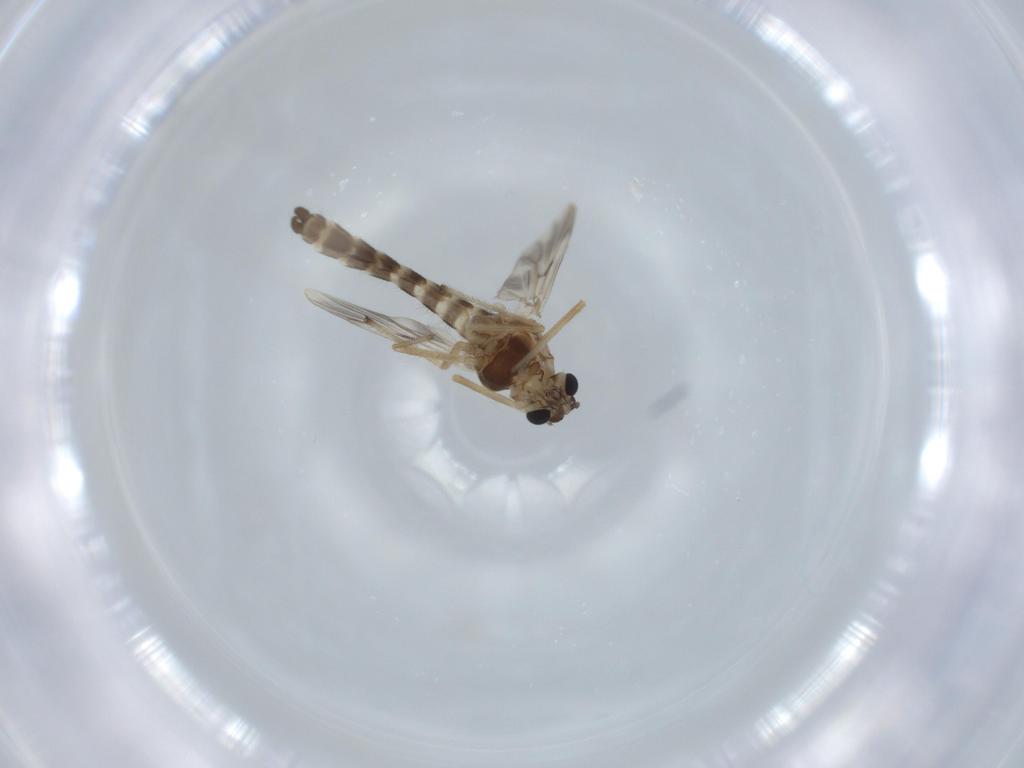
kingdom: Animalia
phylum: Arthropoda
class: Insecta
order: Diptera
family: Chironomidae
